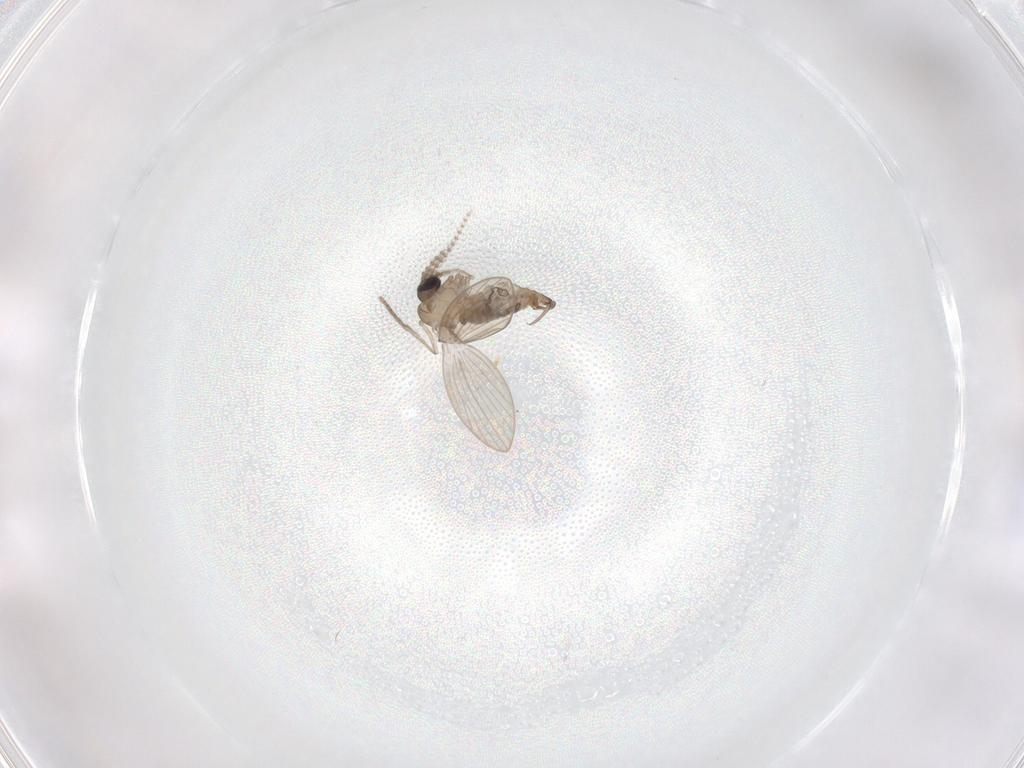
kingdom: Animalia
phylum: Arthropoda
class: Insecta
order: Diptera
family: Psychodidae
